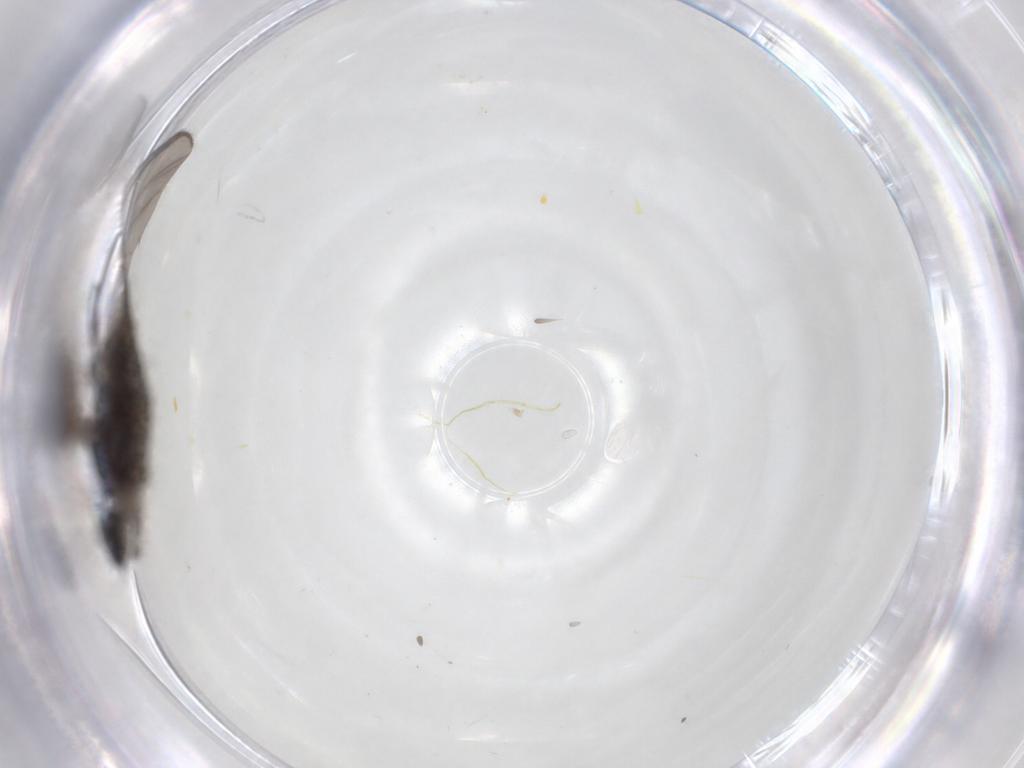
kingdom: Animalia
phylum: Arthropoda
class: Insecta
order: Diptera
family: Sciaridae
